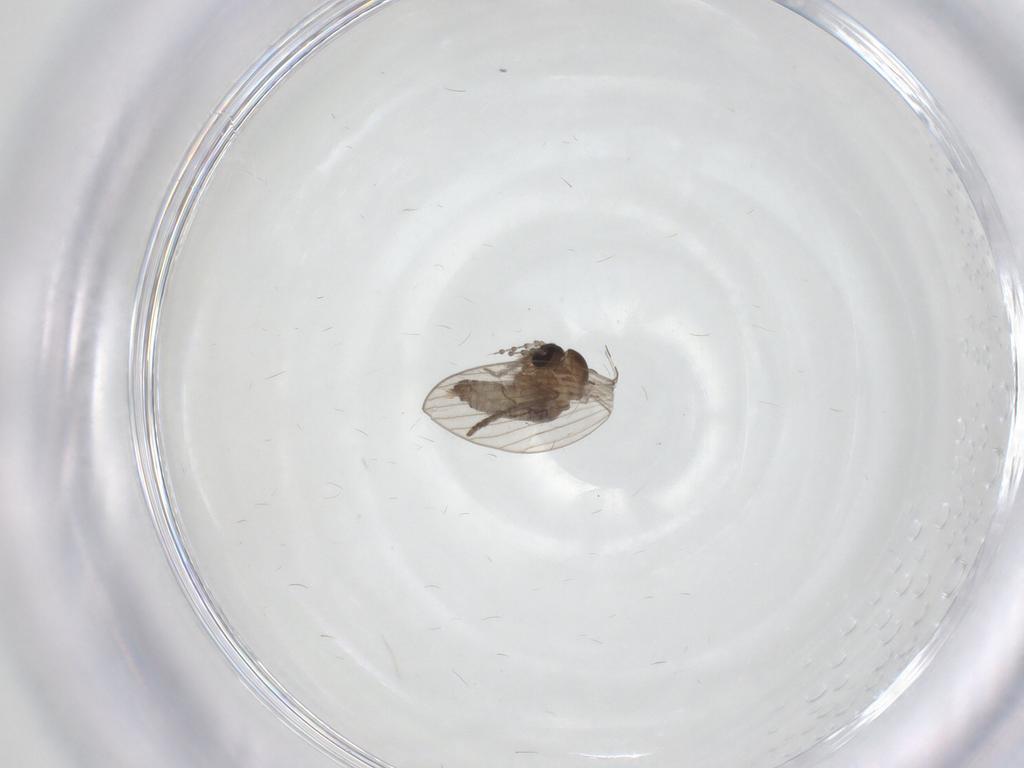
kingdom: Animalia
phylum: Arthropoda
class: Insecta
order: Diptera
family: Psychodidae
